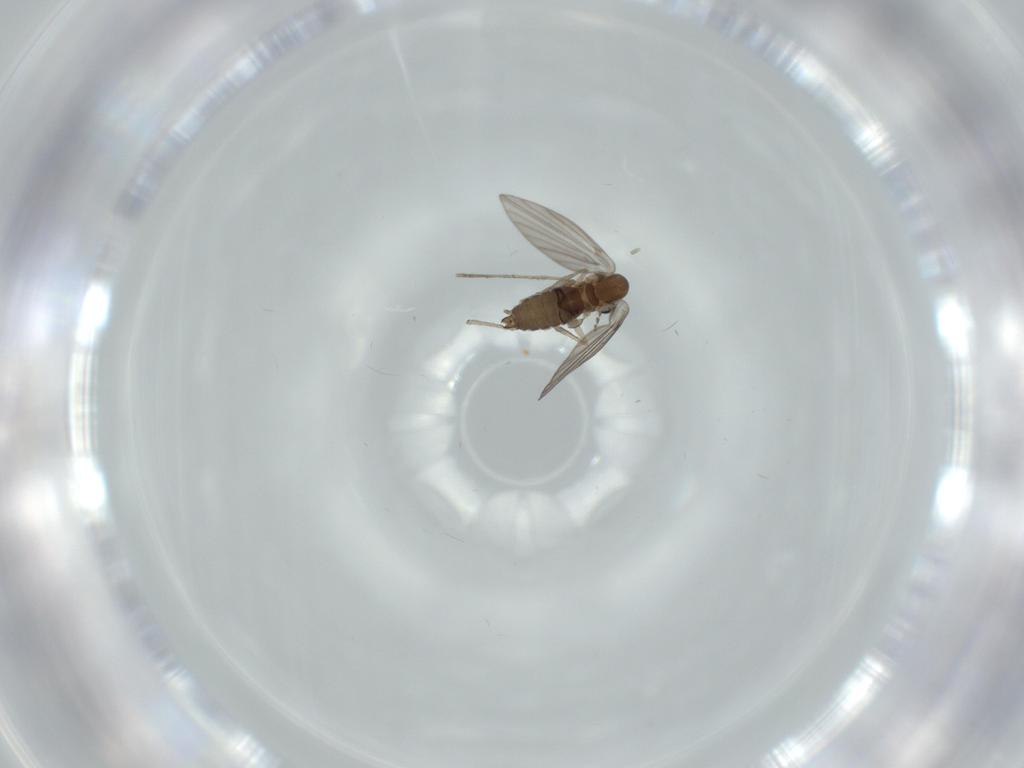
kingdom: Animalia
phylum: Arthropoda
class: Insecta
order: Diptera
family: Psychodidae
